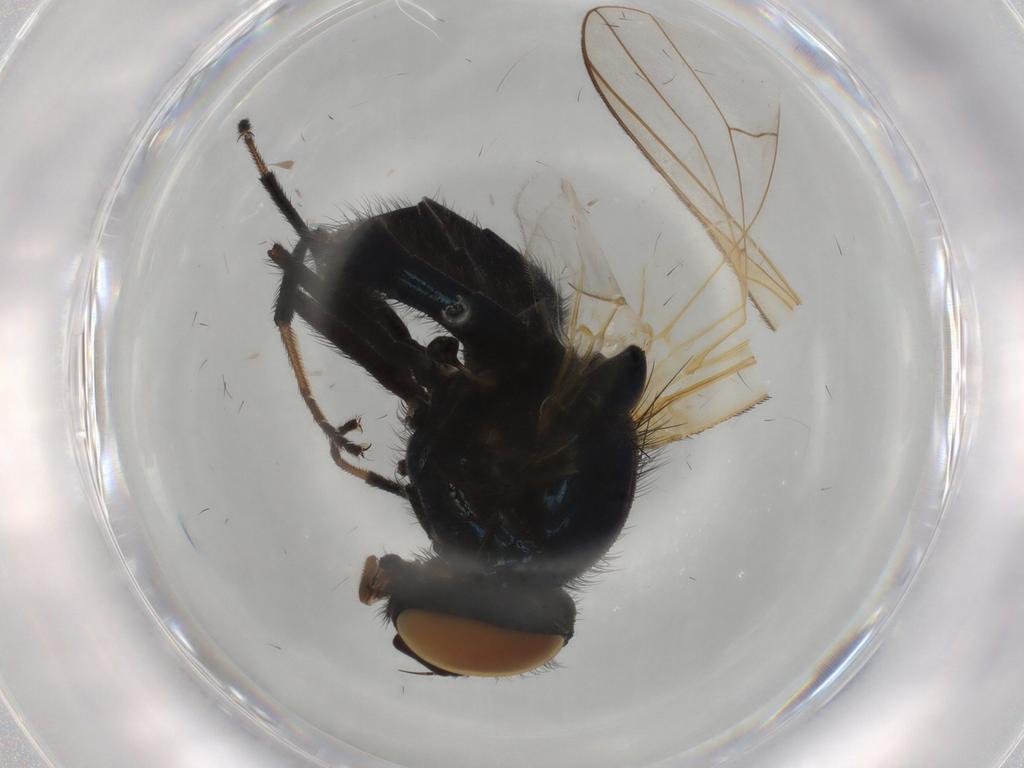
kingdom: Animalia
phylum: Arthropoda
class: Insecta
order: Diptera
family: Lonchaeidae
